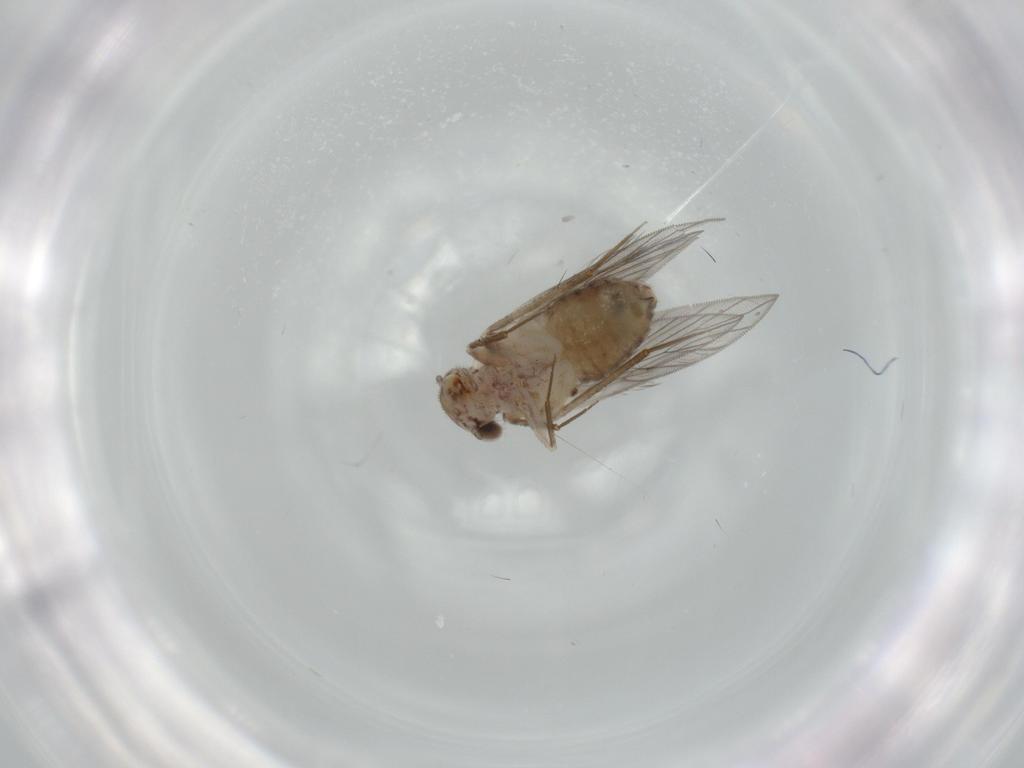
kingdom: Animalia
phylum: Arthropoda
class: Insecta
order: Psocodea
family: Lepidopsocidae
